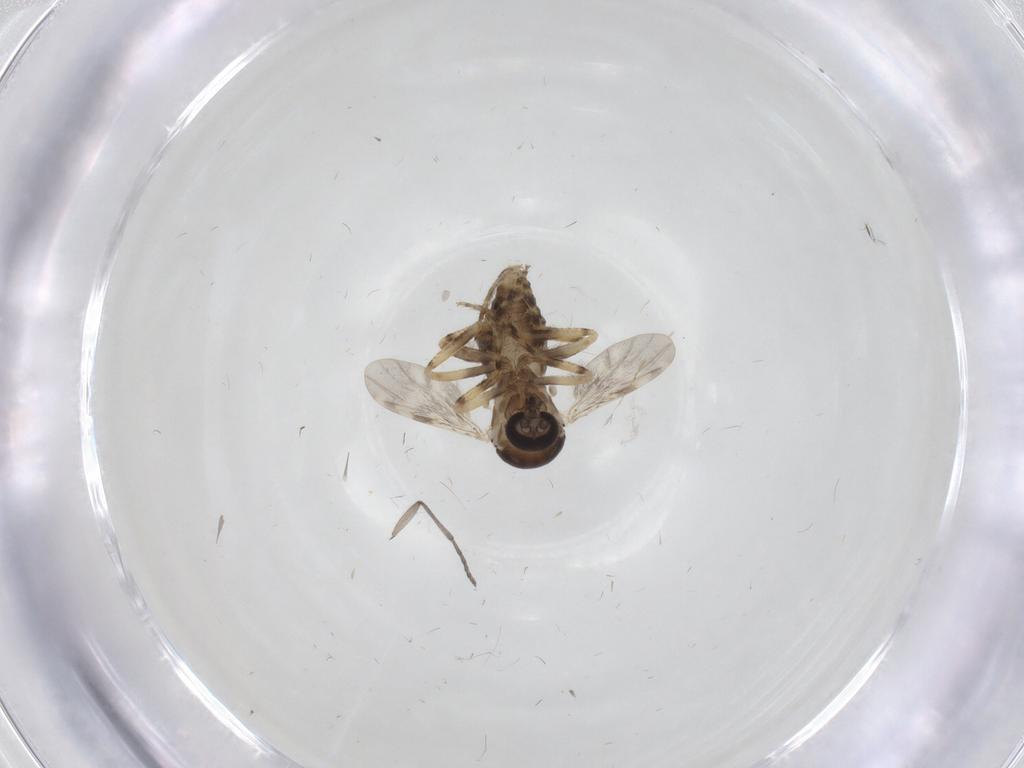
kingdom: Animalia
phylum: Arthropoda
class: Insecta
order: Diptera
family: Ceratopogonidae
